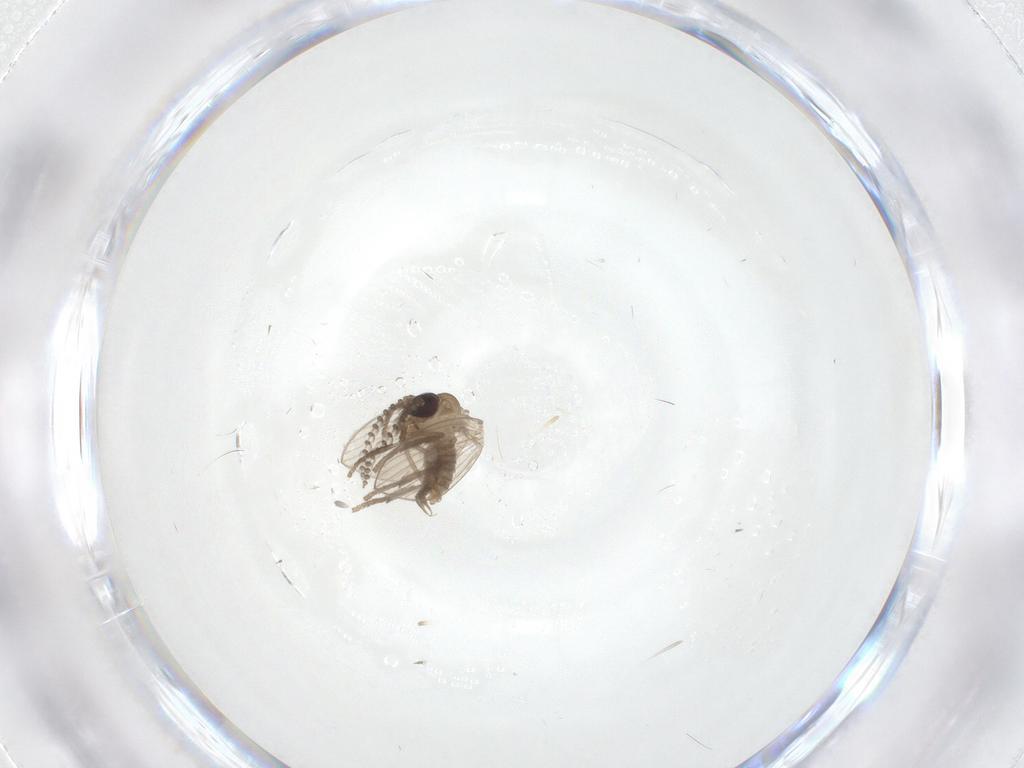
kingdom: Animalia
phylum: Arthropoda
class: Insecta
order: Diptera
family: Psychodidae
